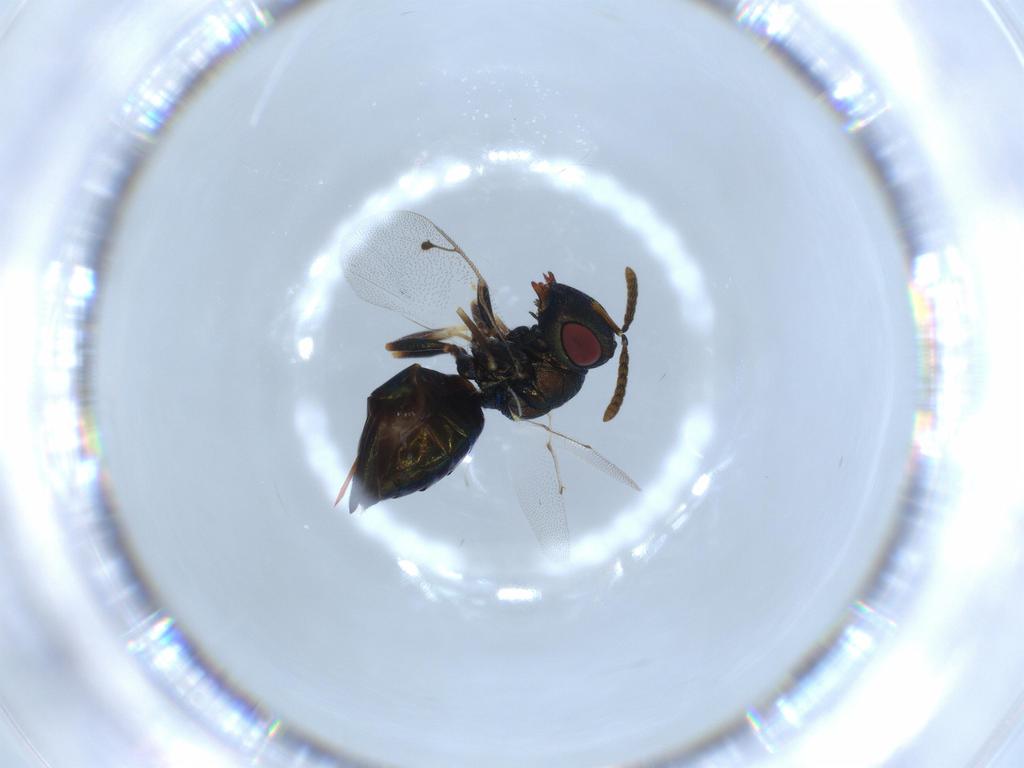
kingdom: Animalia
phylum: Arthropoda
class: Insecta
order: Hymenoptera
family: Pteromalidae
